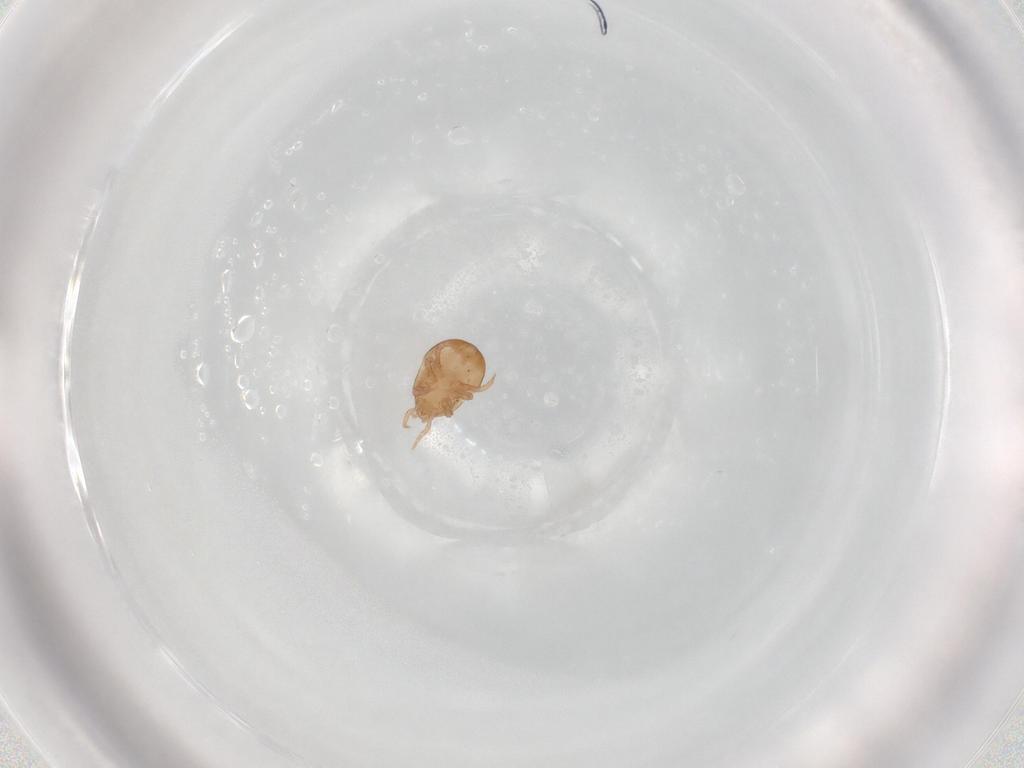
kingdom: Animalia
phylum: Arthropoda
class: Arachnida
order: Mesostigmata
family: Halolaelapidae
